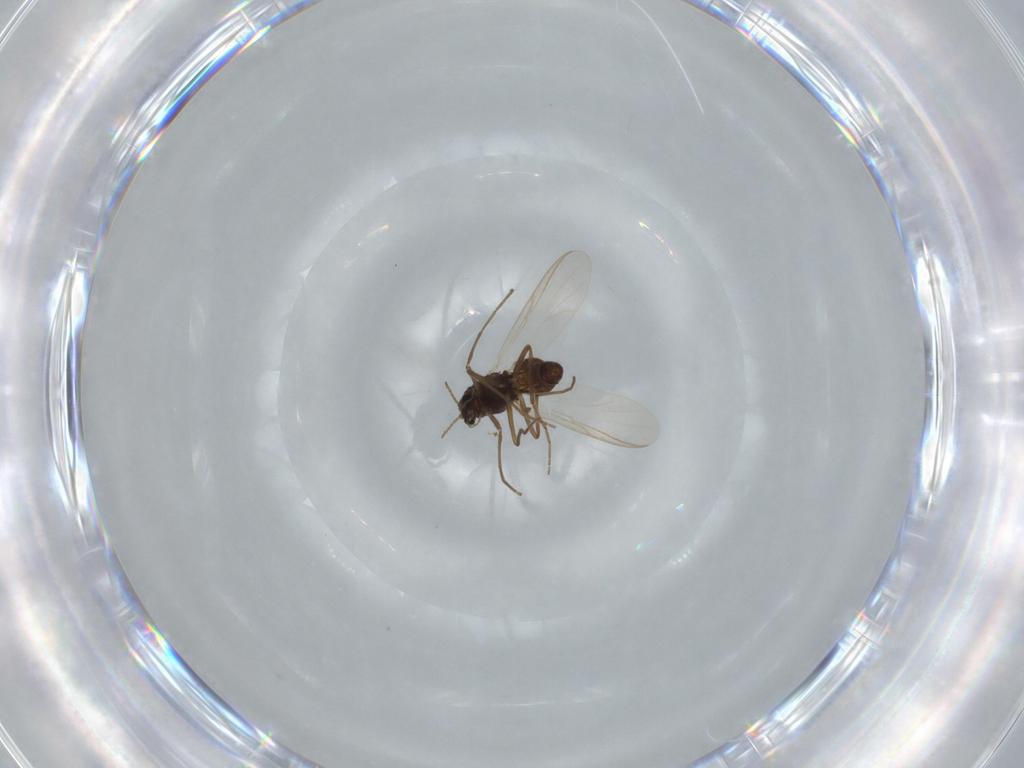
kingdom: Animalia
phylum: Arthropoda
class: Insecta
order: Diptera
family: Chironomidae
